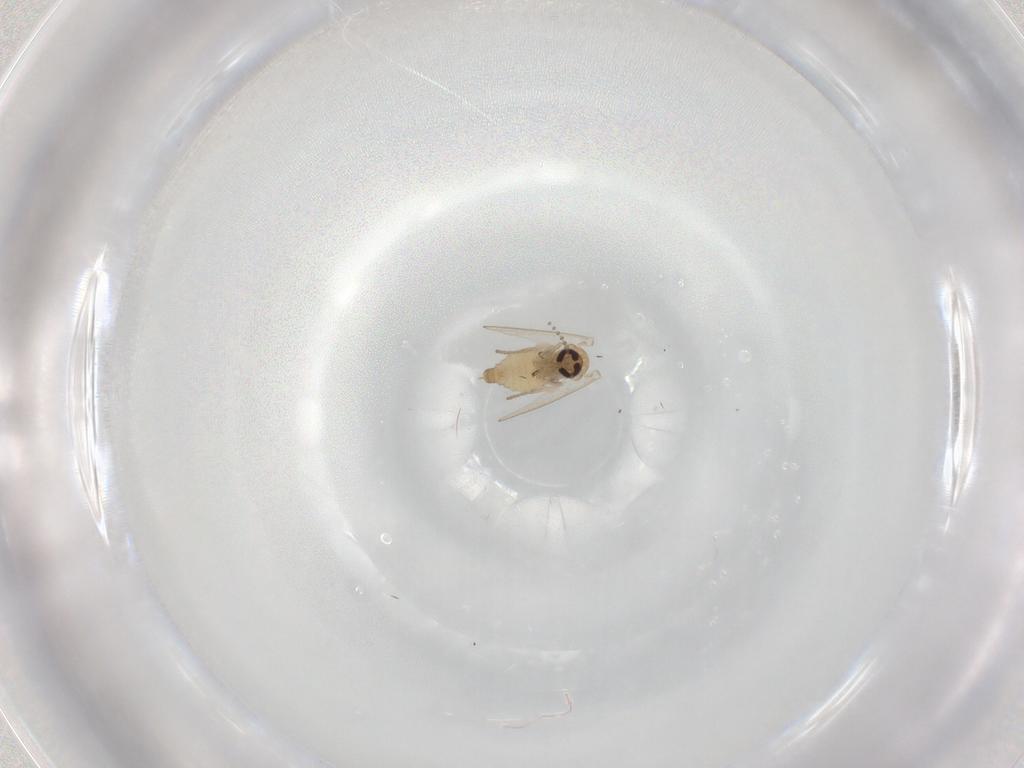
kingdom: Animalia
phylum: Arthropoda
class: Insecta
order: Diptera
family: Psychodidae
